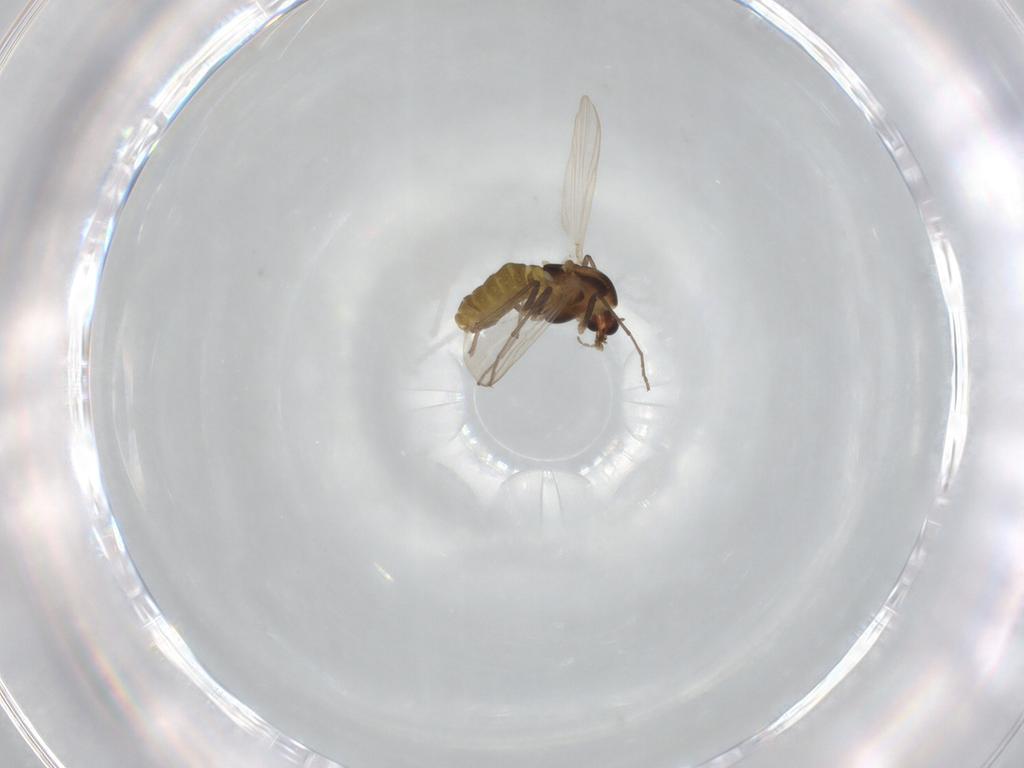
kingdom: Animalia
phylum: Arthropoda
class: Insecta
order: Diptera
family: Chironomidae
